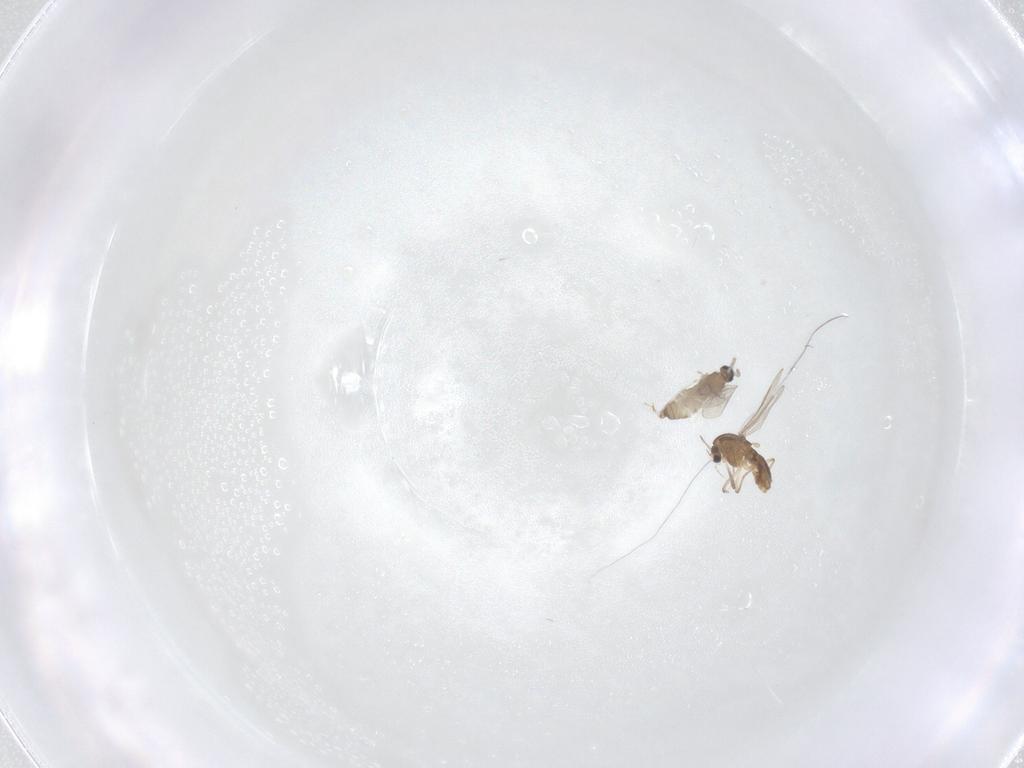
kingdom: Animalia
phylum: Arthropoda
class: Insecta
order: Diptera
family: Cecidomyiidae
